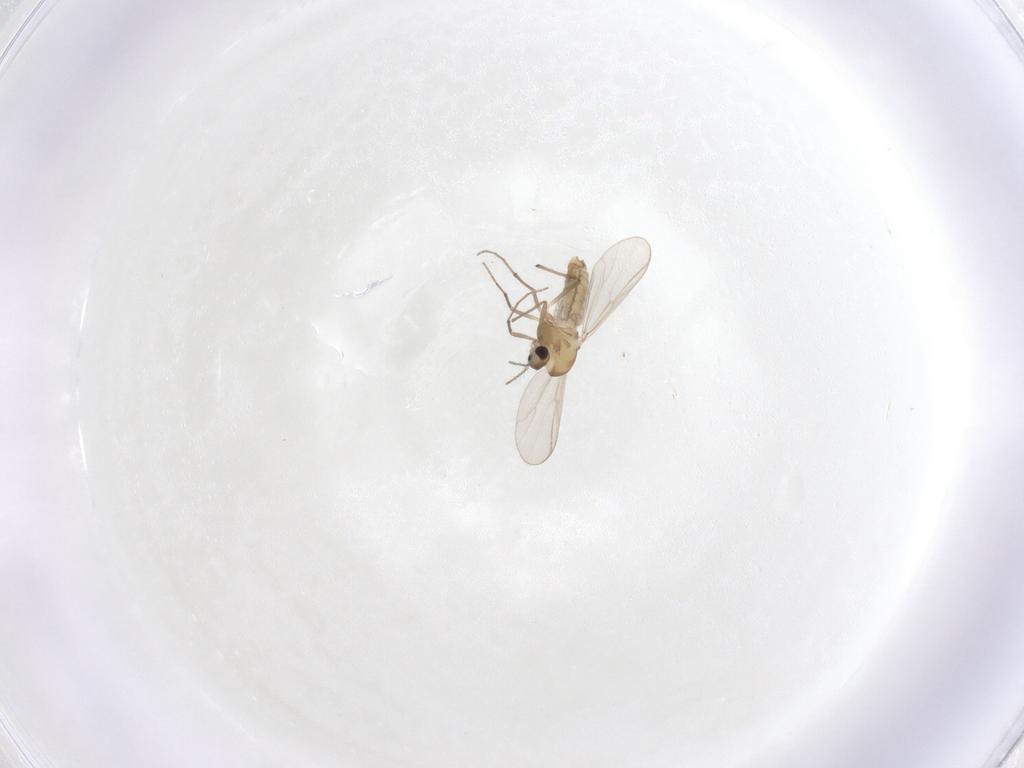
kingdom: Animalia
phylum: Arthropoda
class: Insecta
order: Diptera
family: Chironomidae
